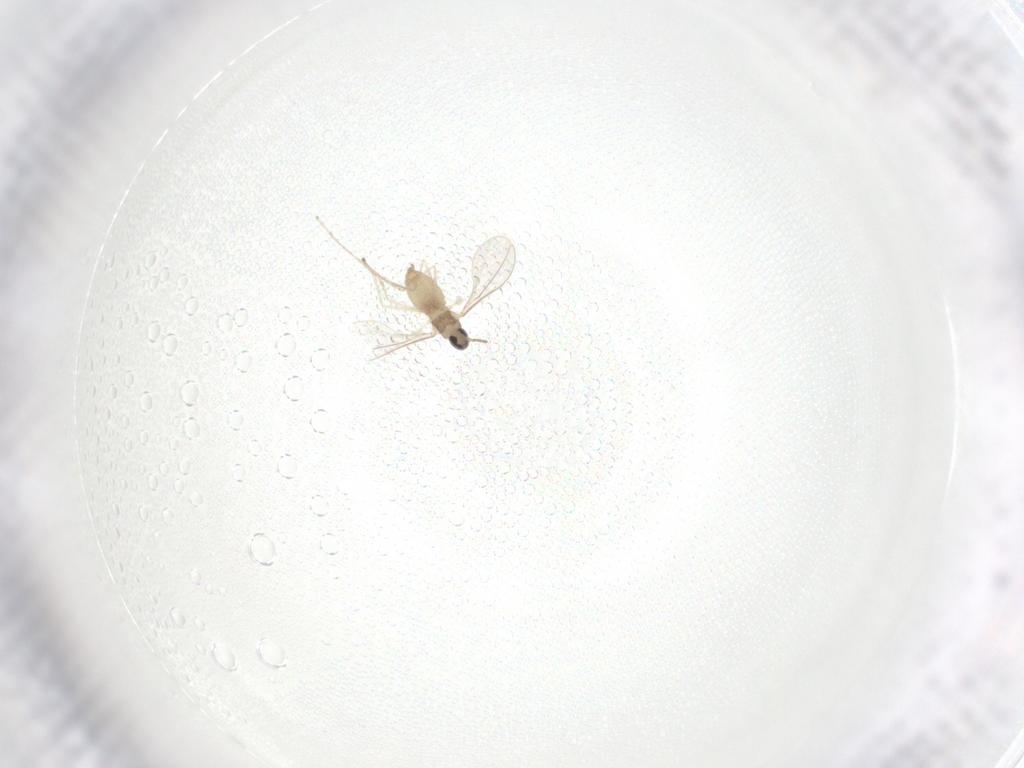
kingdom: Animalia
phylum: Arthropoda
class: Insecta
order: Diptera
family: Cecidomyiidae
